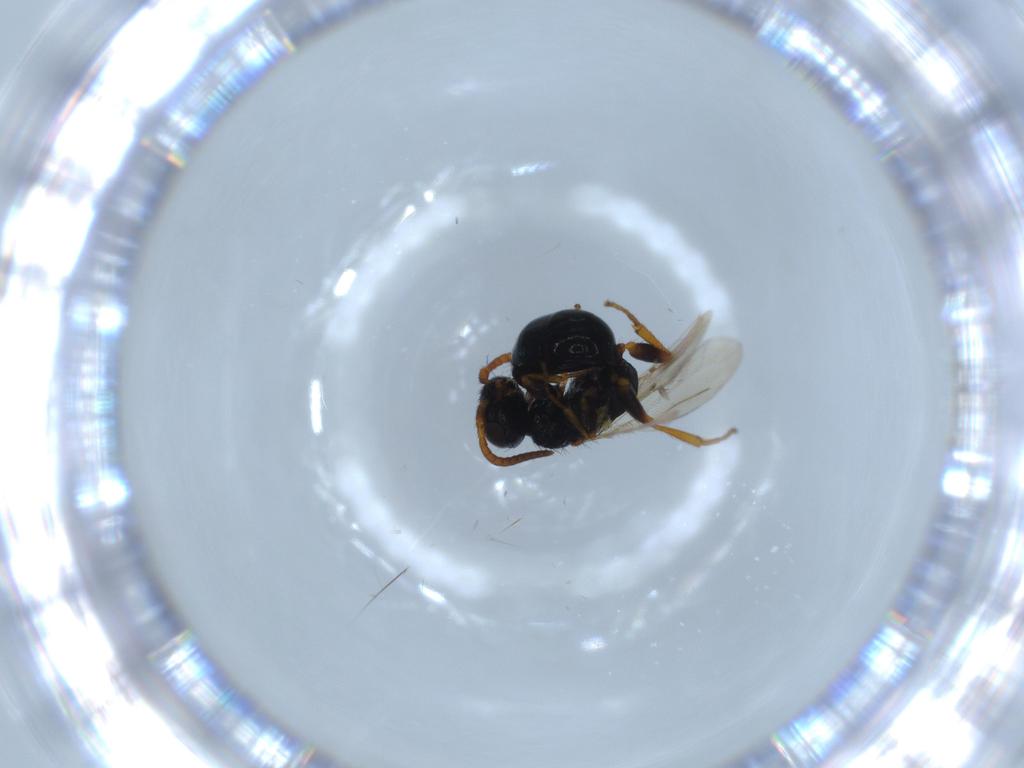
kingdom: Animalia
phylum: Arthropoda
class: Insecta
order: Hymenoptera
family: Bethylidae
